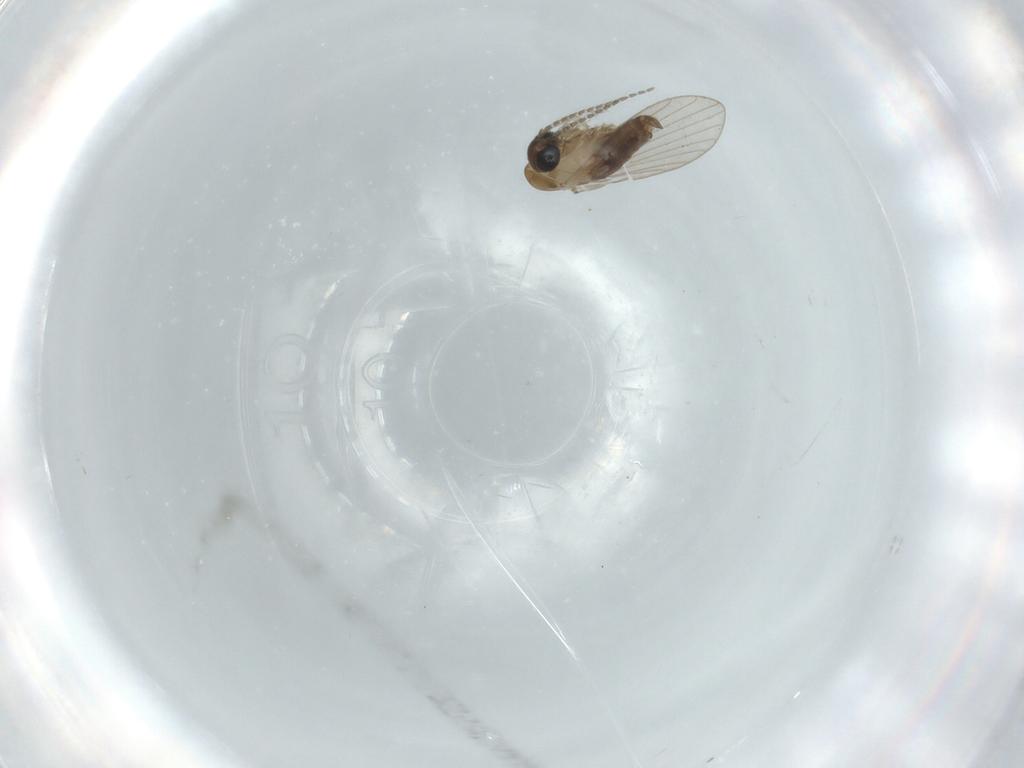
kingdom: Animalia
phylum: Arthropoda
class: Insecta
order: Diptera
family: Psychodidae
